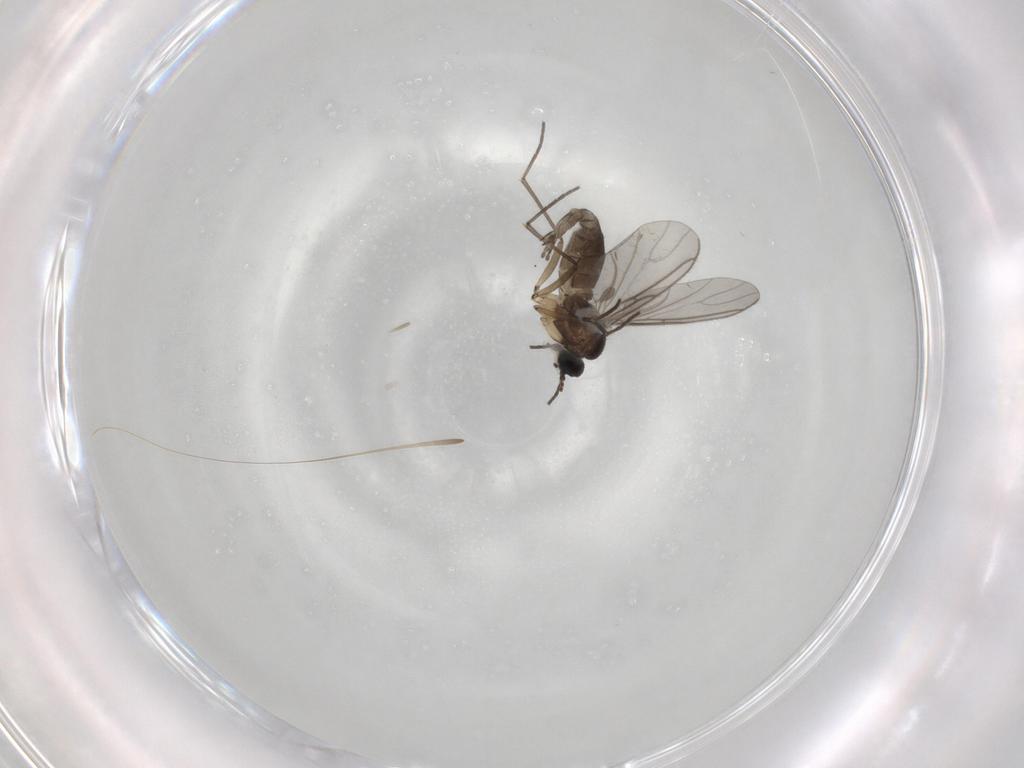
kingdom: Animalia
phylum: Arthropoda
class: Insecta
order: Diptera
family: Sciaridae
